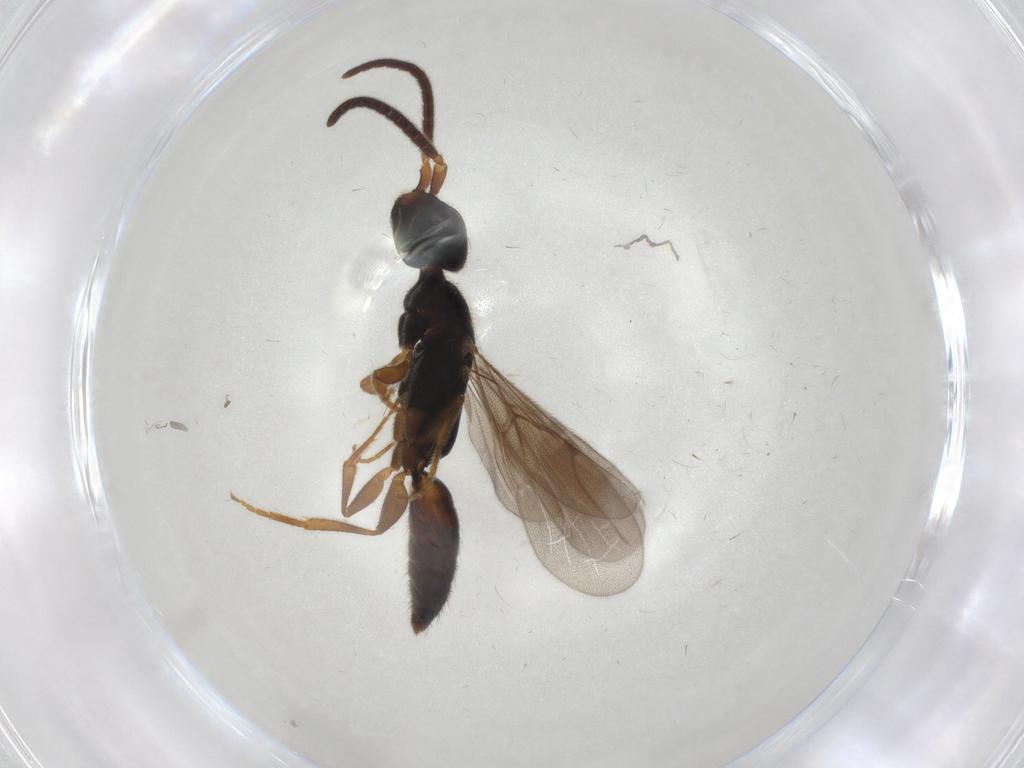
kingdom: Animalia
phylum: Arthropoda
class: Insecta
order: Hymenoptera
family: Bethylidae
